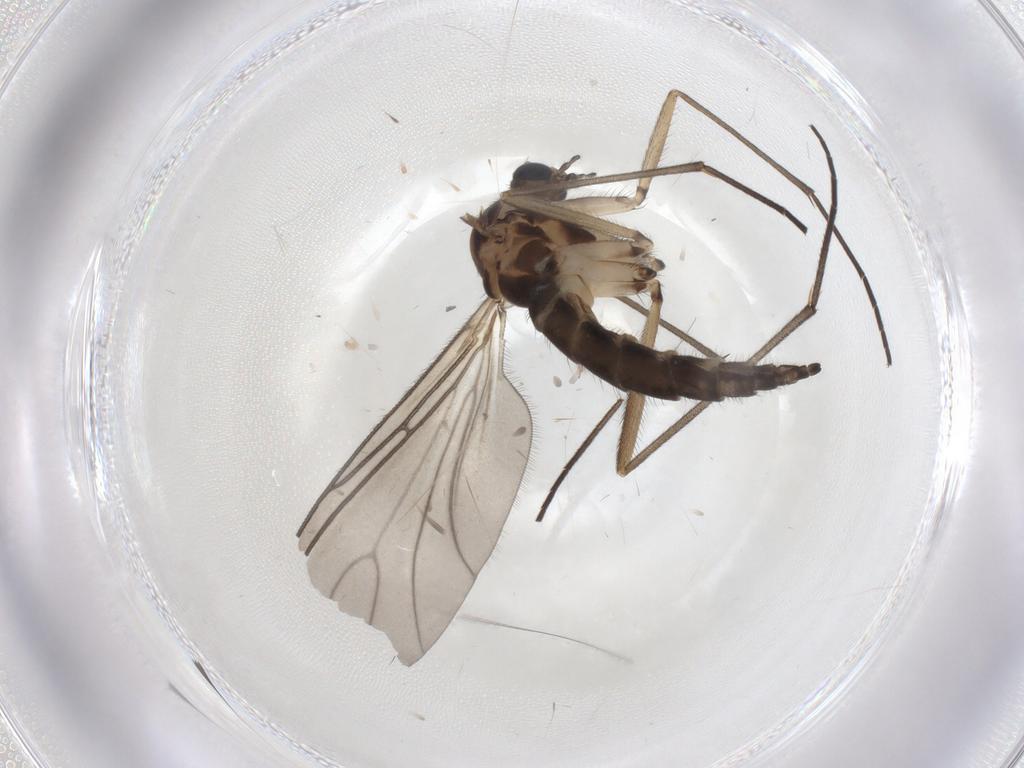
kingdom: Animalia
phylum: Arthropoda
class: Insecta
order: Diptera
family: Sciaridae
